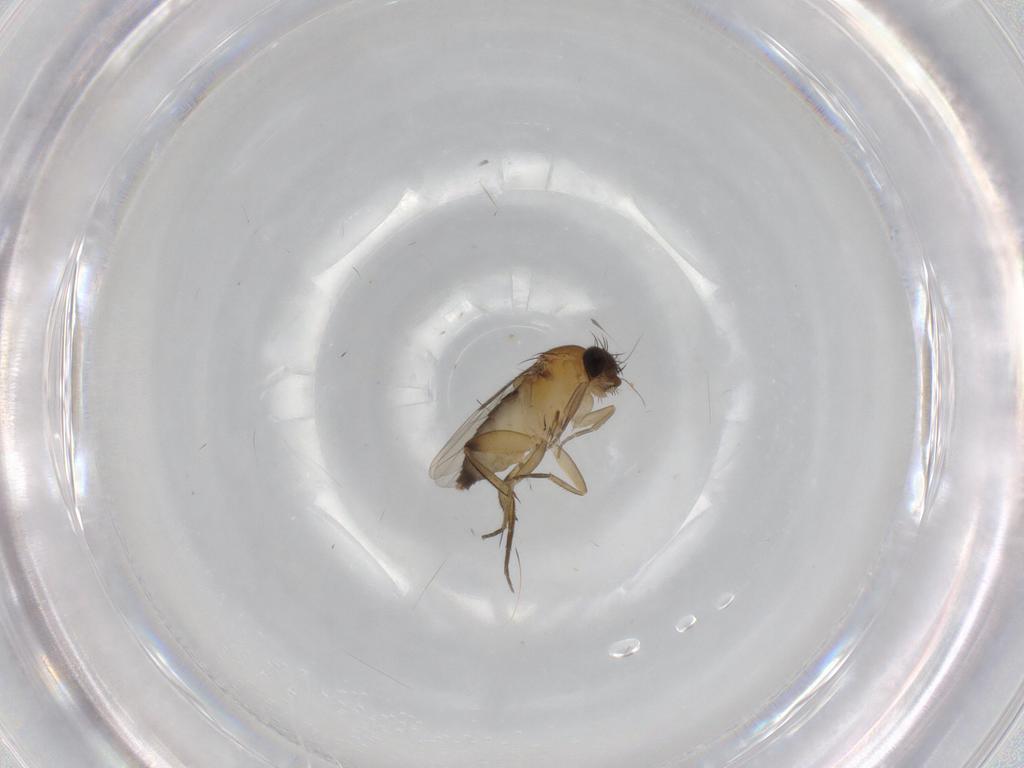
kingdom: Animalia
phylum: Arthropoda
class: Insecta
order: Diptera
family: Phoridae
